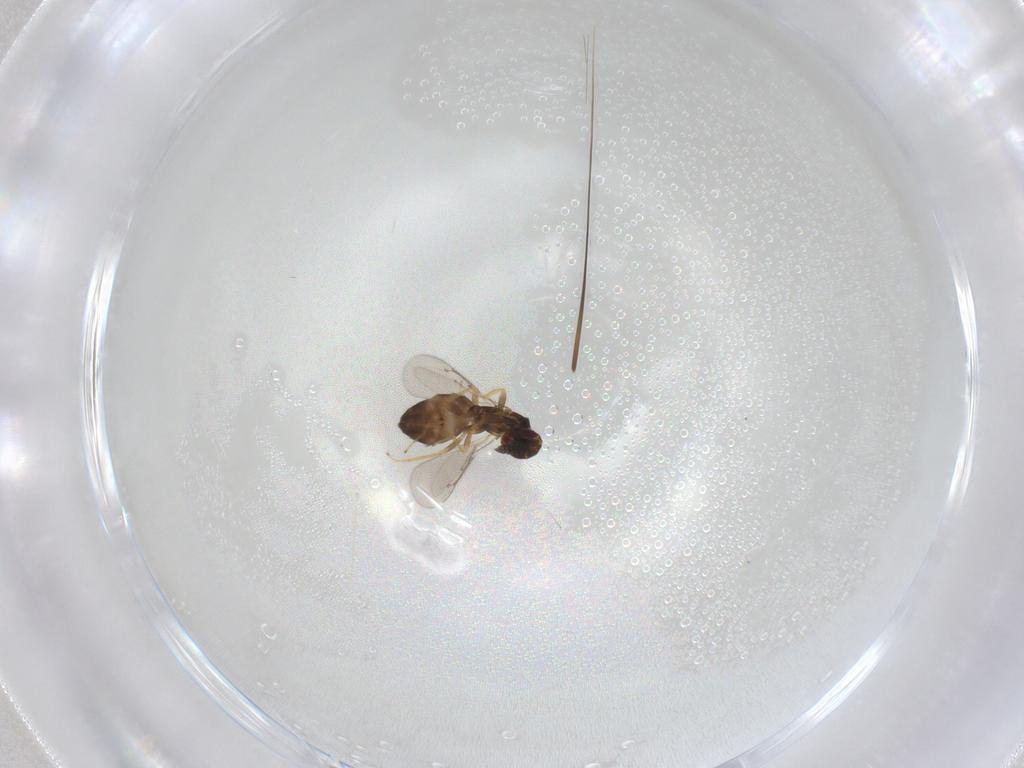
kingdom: Animalia
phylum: Arthropoda
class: Insecta
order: Hymenoptera
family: Eulophidae
